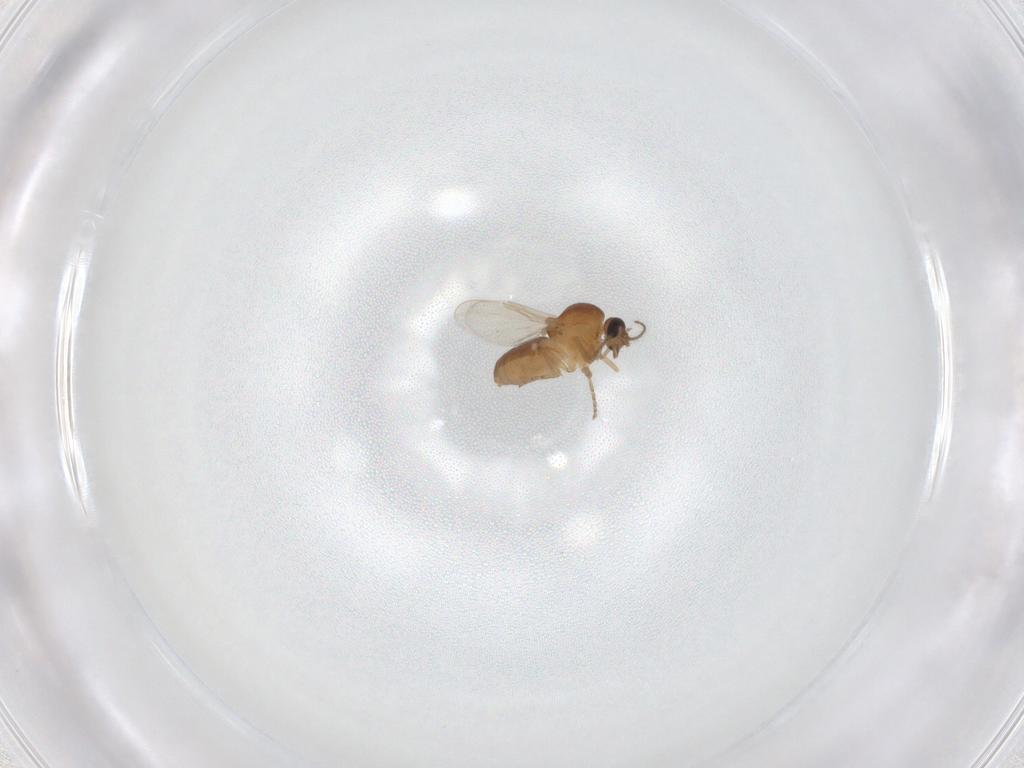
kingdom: Animalia
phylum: Arthropoda
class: Insecta
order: Diptera
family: Ceratopogonidae
